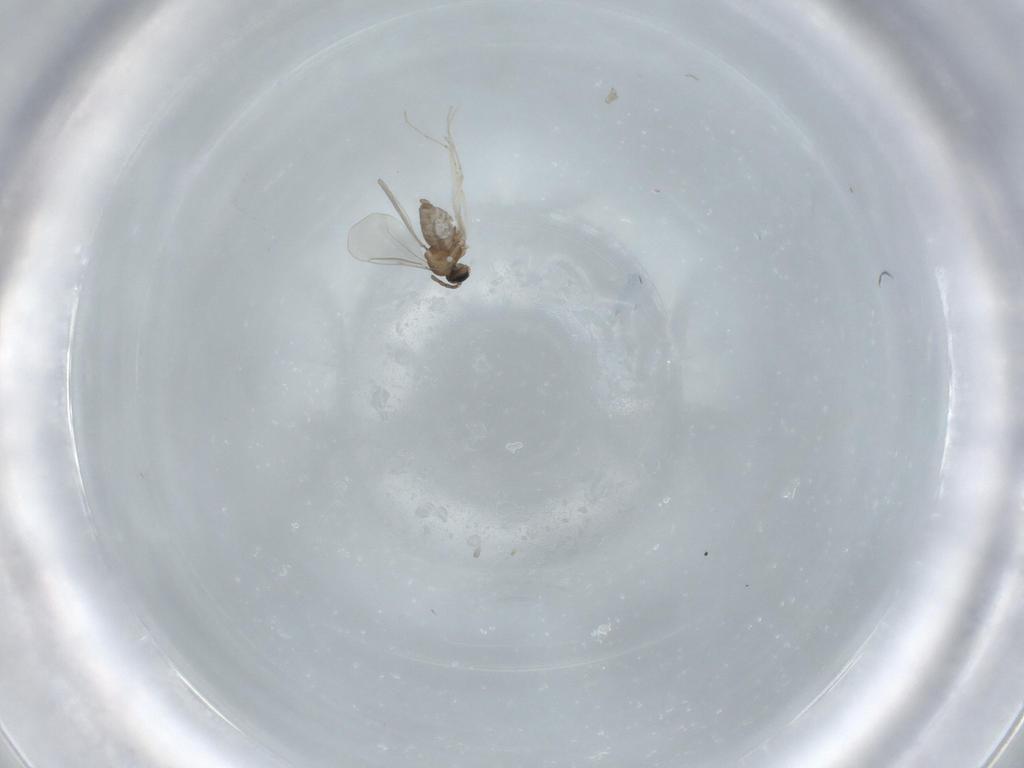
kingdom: Animalia
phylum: Arthropoda
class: Insecta
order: Diptera
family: Cecidomyiidae
